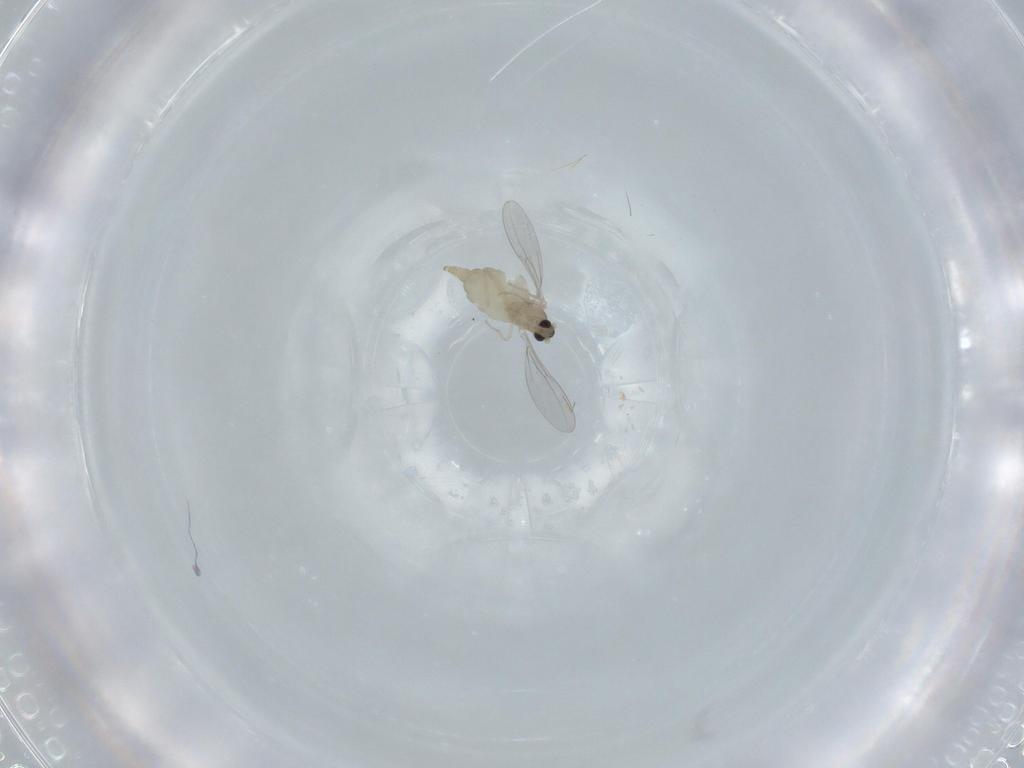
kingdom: Animalia
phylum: Arthropoda
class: Insecta
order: Diptera
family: Cecidomyiidae
